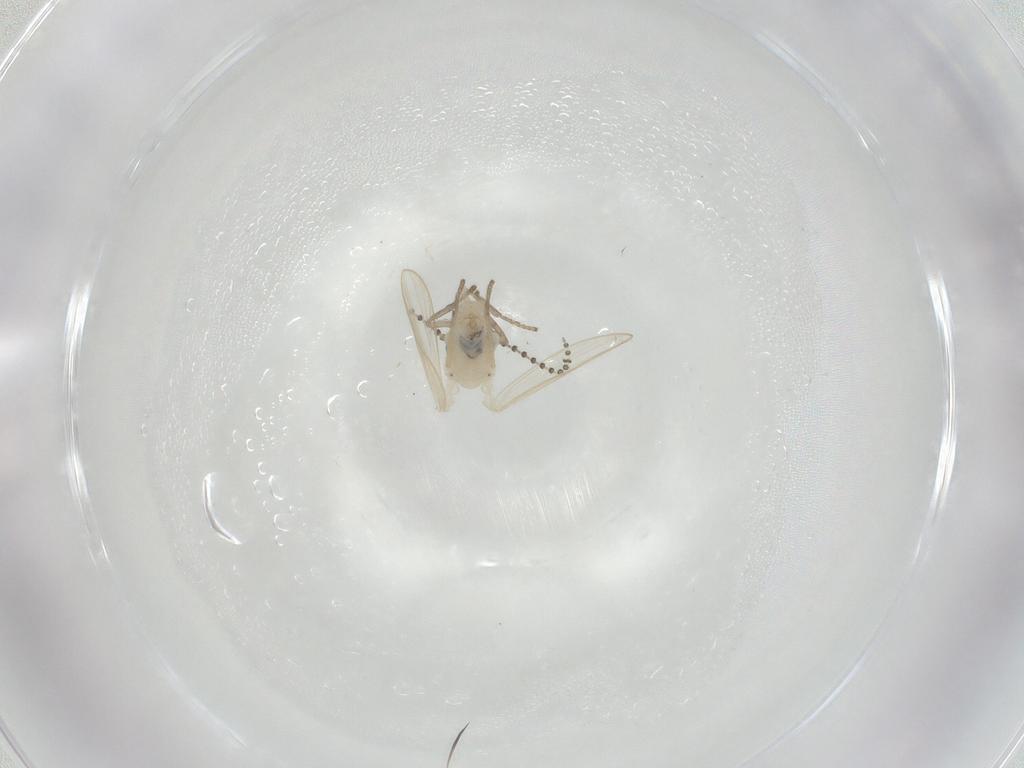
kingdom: Animalia
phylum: Arthropoda
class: Insecta
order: Diptera
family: Psychodidae
